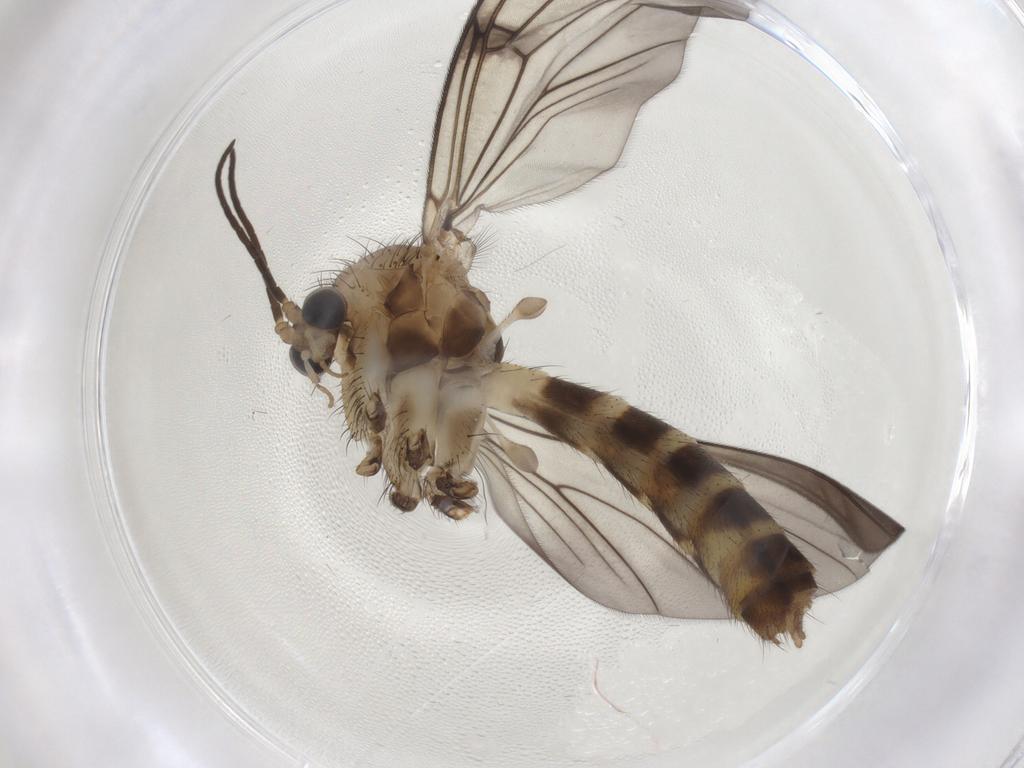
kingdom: Animalia
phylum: Arthropoda
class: Insecta
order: Diptera
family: Mycetophilidae
